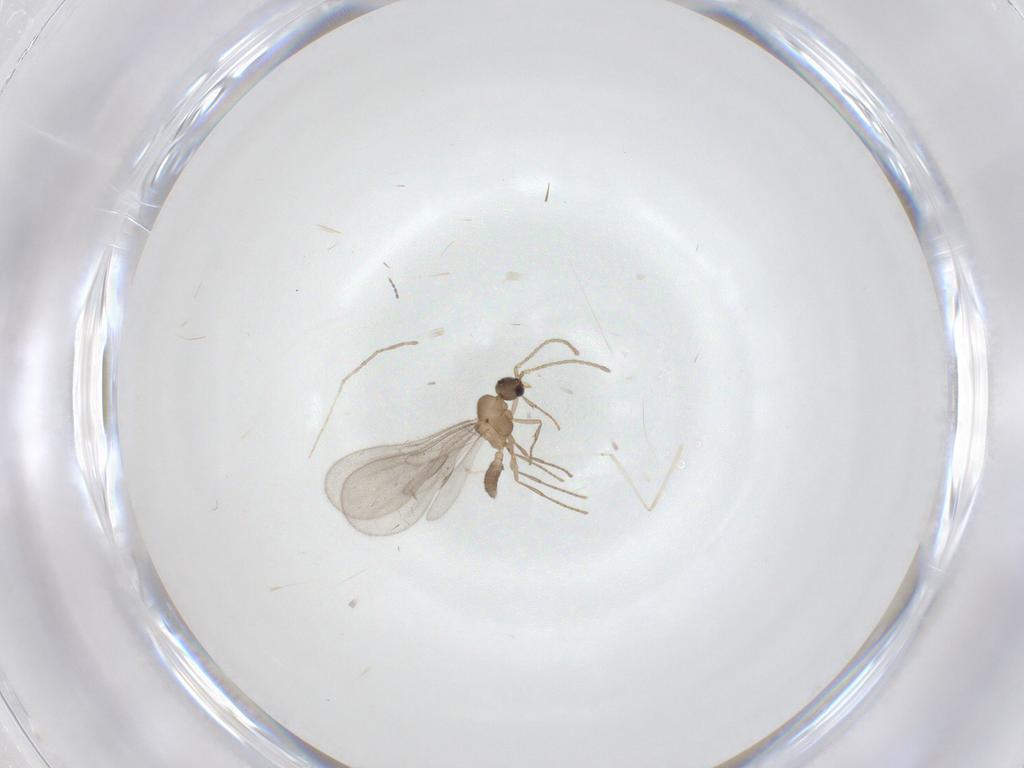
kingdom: Animalia
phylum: Arthropoda
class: Insecta
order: Hymenoptera
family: Formicidae
